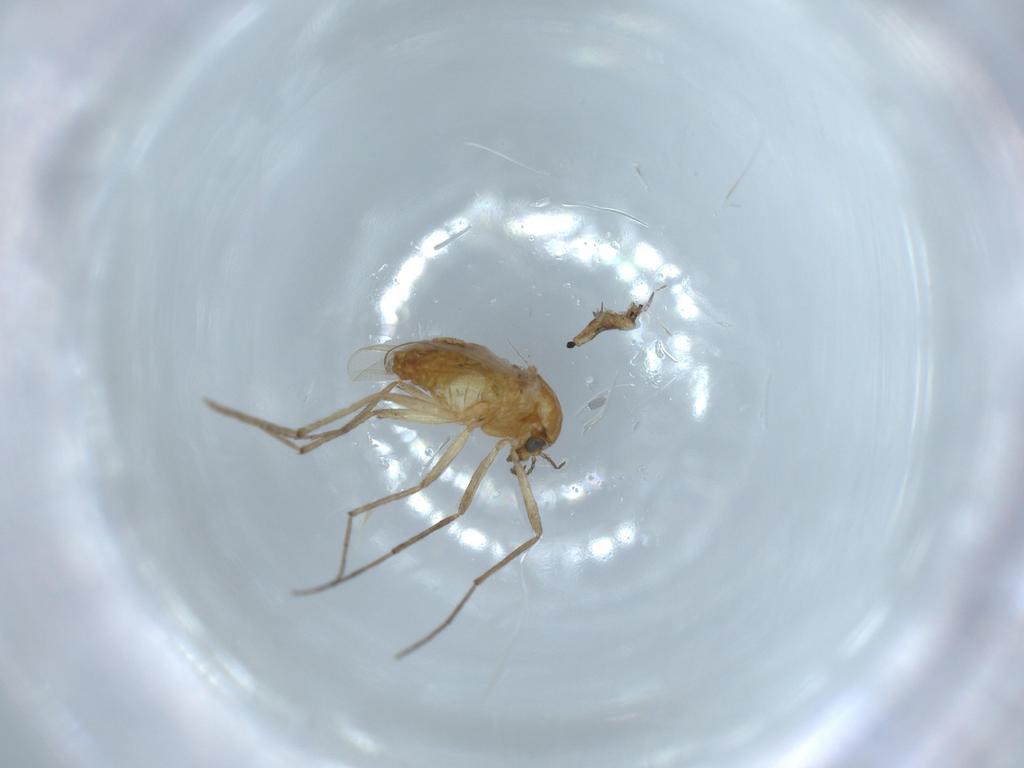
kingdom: Animalia
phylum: Arthropoda
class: Insecta
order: Diptera
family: Chironomidae
